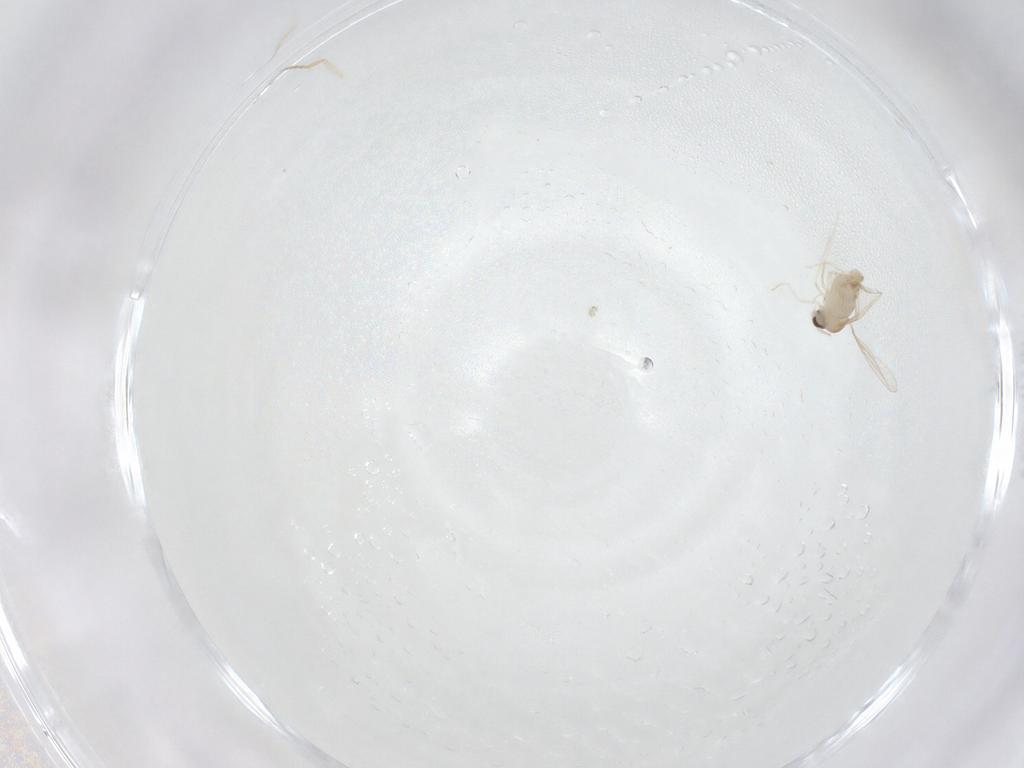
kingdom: Animalia
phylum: Arthropoda
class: Insecta
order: Diptera
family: Cecidomyiidae
